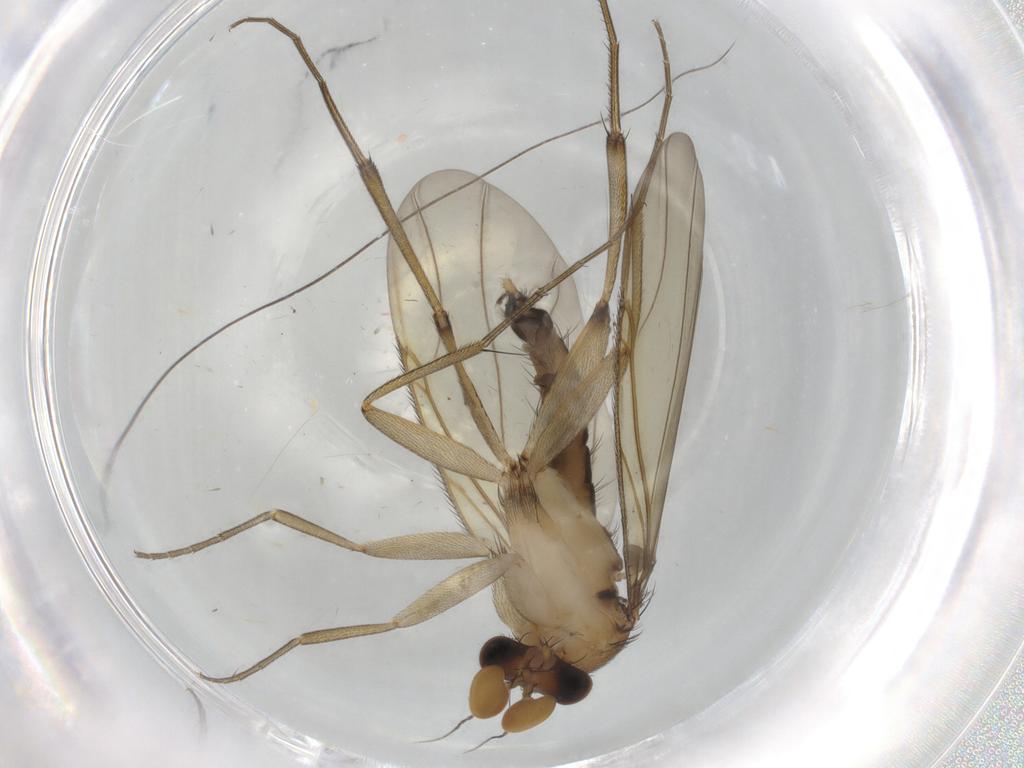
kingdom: Animalia
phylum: Arthropoda
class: Insecta
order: Diptera
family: Phoridae
